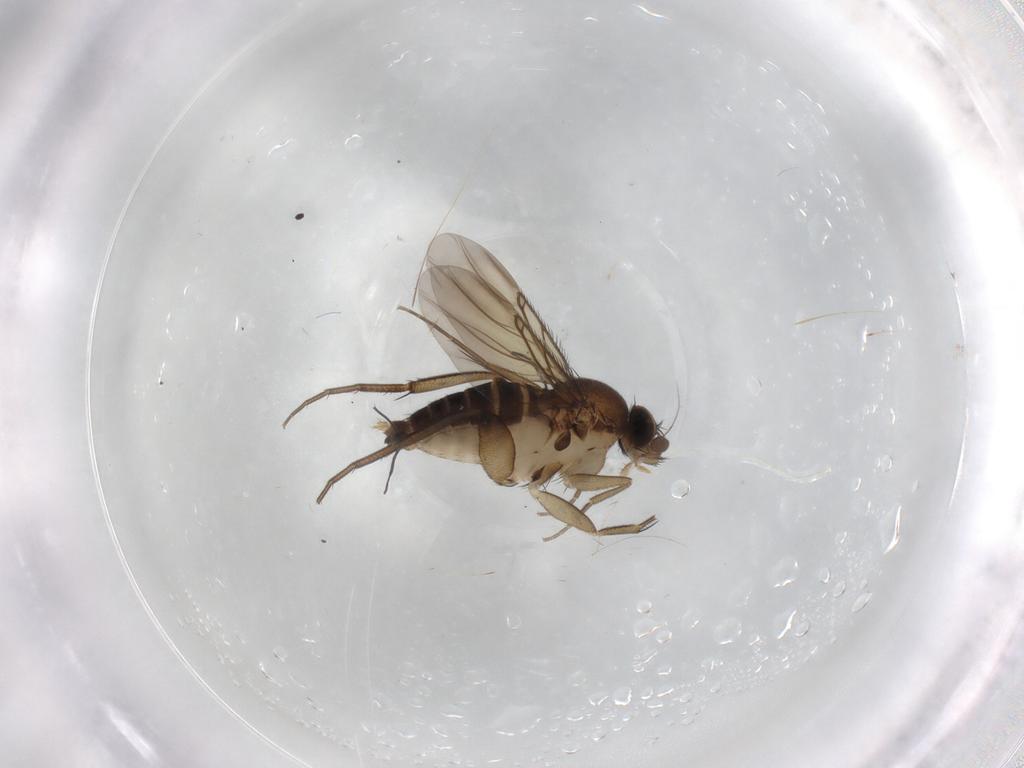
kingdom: Animalia
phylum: Arthropoda
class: Insecta
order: Diptera
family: Phoridae
